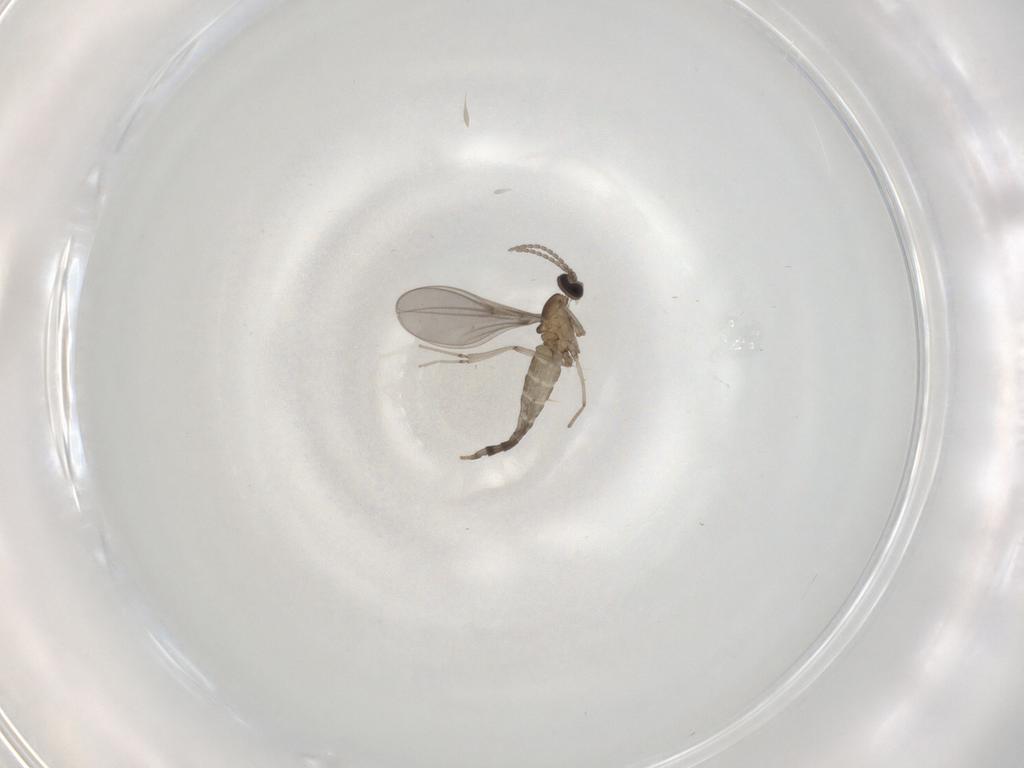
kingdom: Animalia
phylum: Arthropoda
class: Insecta
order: Diptera
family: Cecidomyiidae
